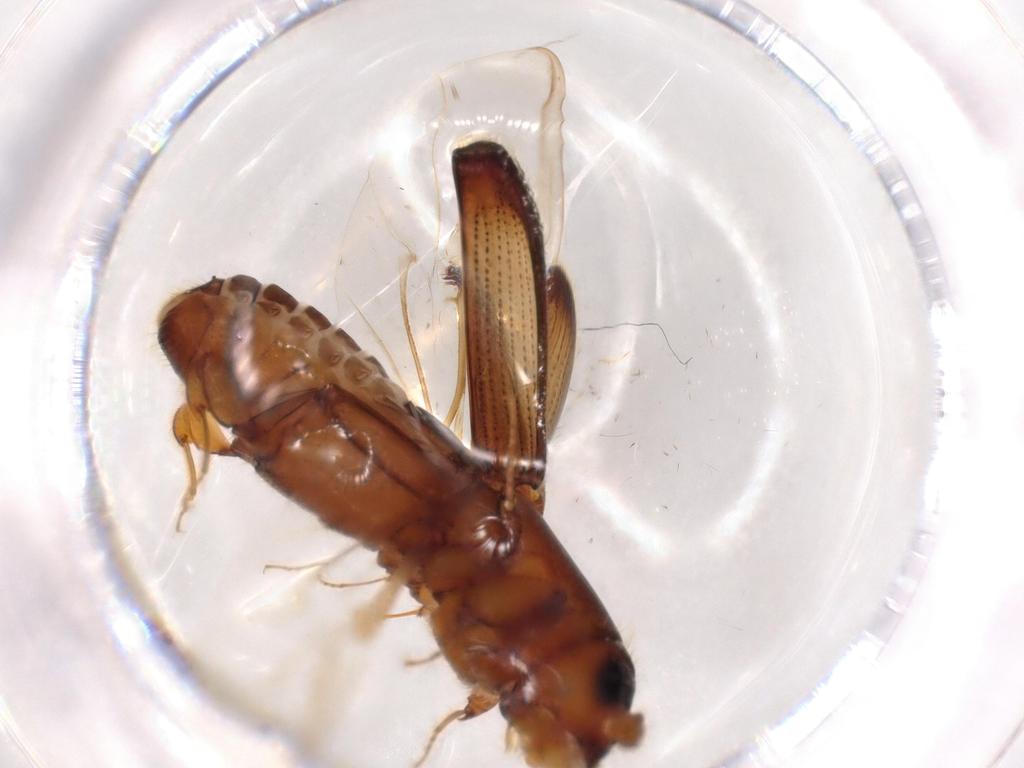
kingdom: Animalia
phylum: Arthropoda
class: Insecta
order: Coleoptera
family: Curculionidae
